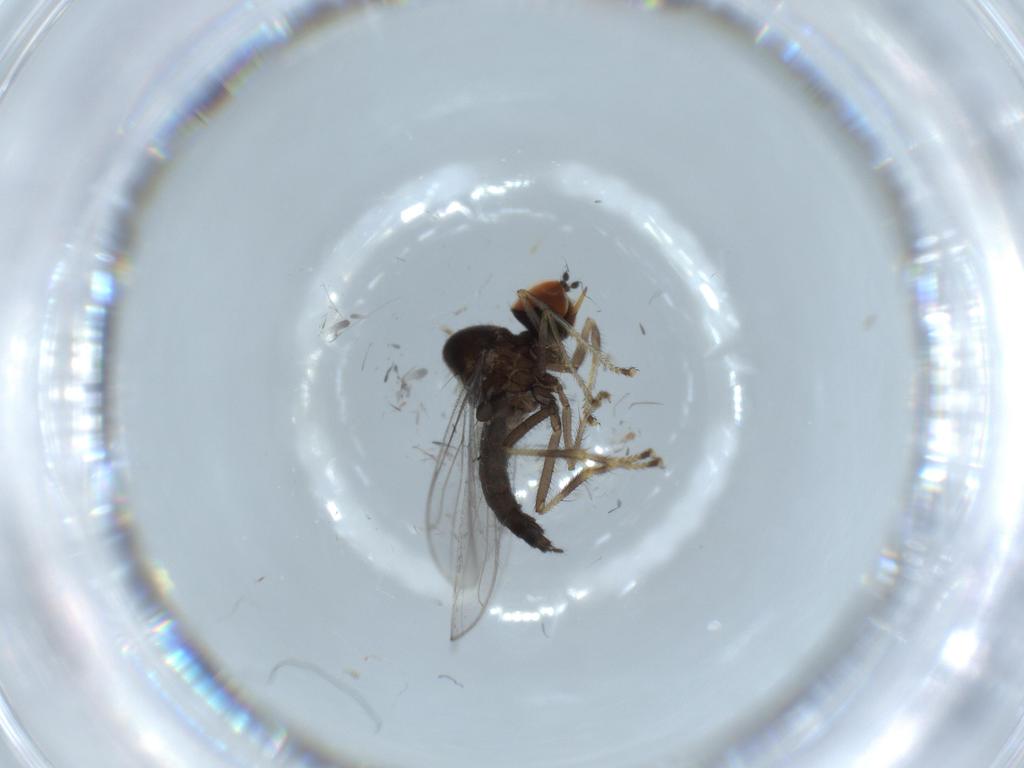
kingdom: Animalia
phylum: Arthropoda
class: Insecta
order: Diptera
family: Hybotidae
